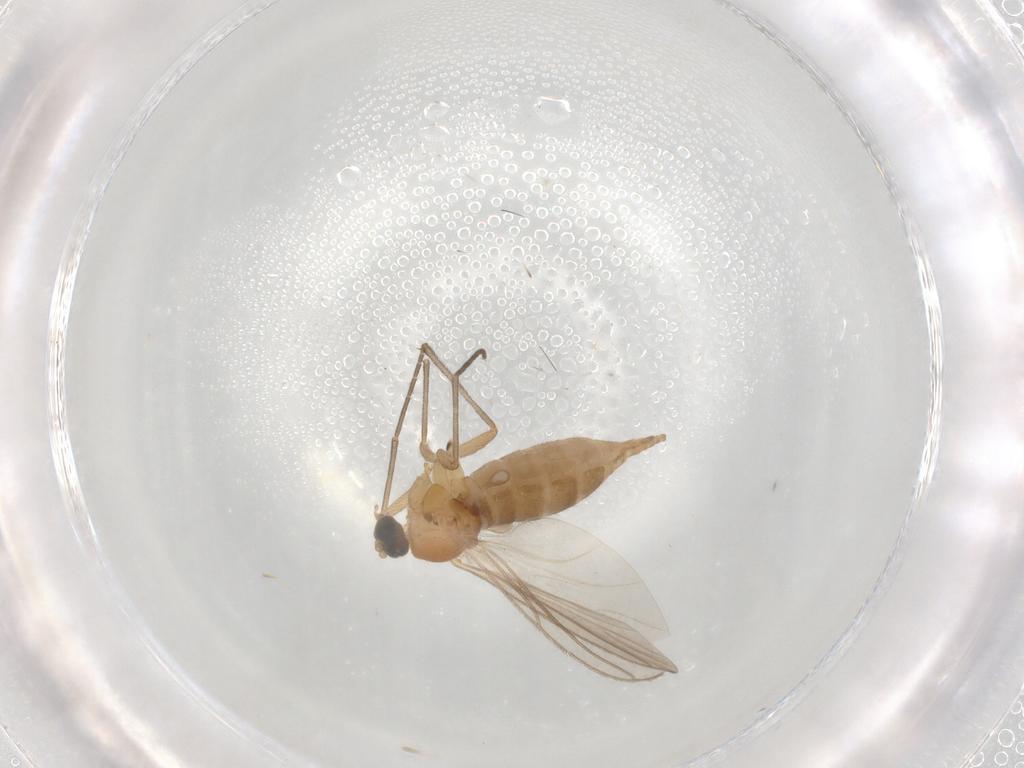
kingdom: Animalia
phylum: Arthropoda
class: Insecta
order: Diptera
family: Sciaridae
